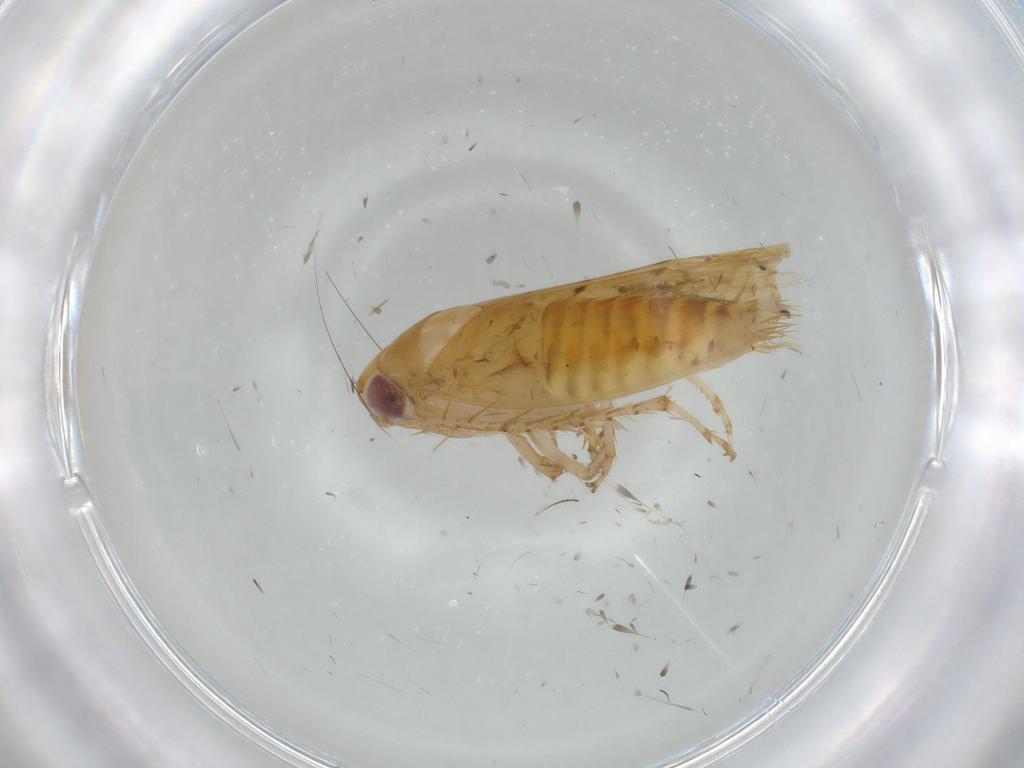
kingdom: Animalia
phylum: Arthropoda
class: Insecta
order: Hemiptera
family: Cicadellidae
